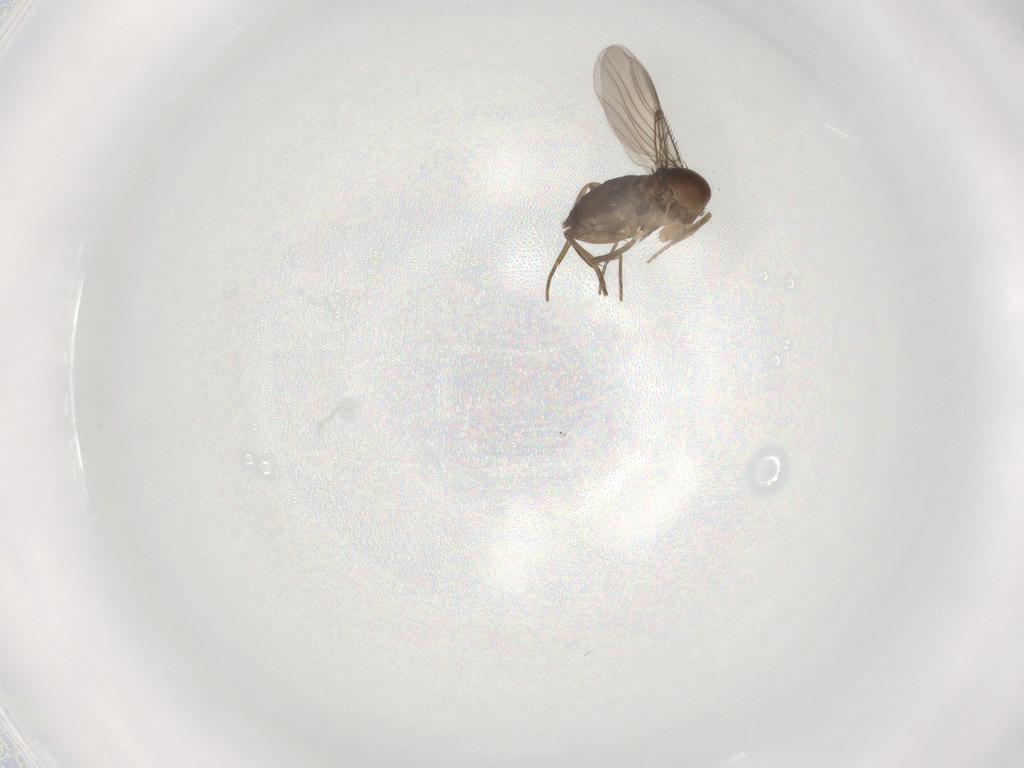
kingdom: Animalia
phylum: Arthropoda
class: Insecta
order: Diptera
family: Phoridae
